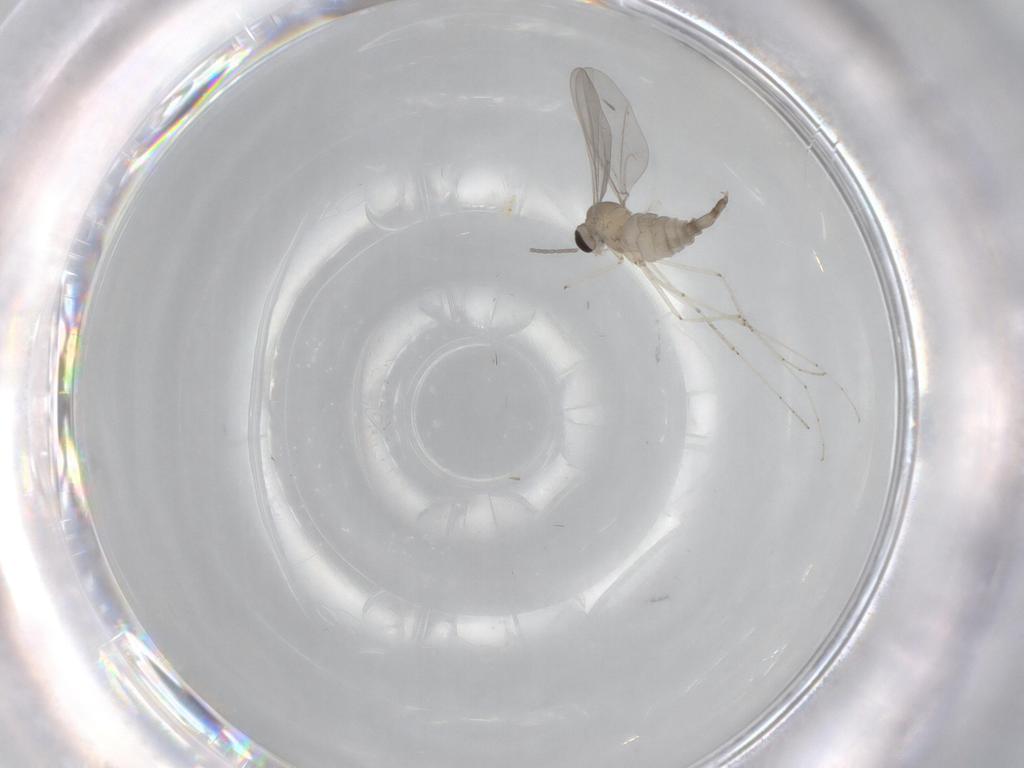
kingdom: Animalia
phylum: Arthropoda
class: Insecta
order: Diptera
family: Cecidomyiidae
